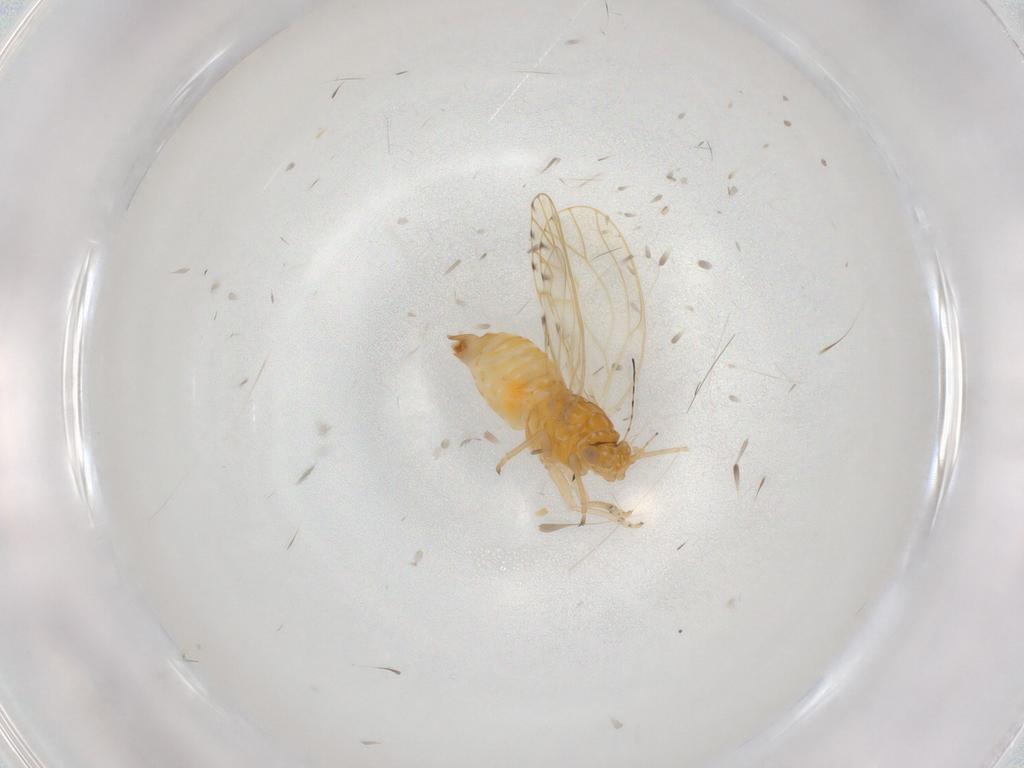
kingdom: Animalia
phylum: Arthropoda
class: Insecta
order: Hemiptera
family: Psylloidea_incertae_sedis
